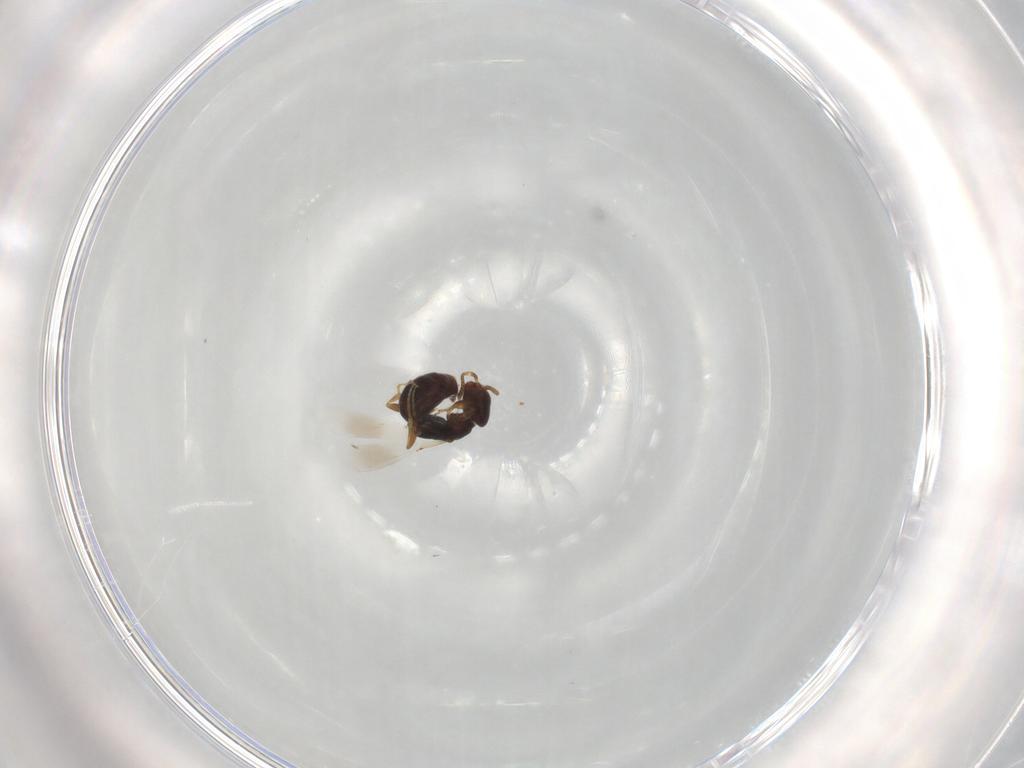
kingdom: Animalia
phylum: Arthropoda
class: Insecta
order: Hymenoptera
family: Bethylidae
